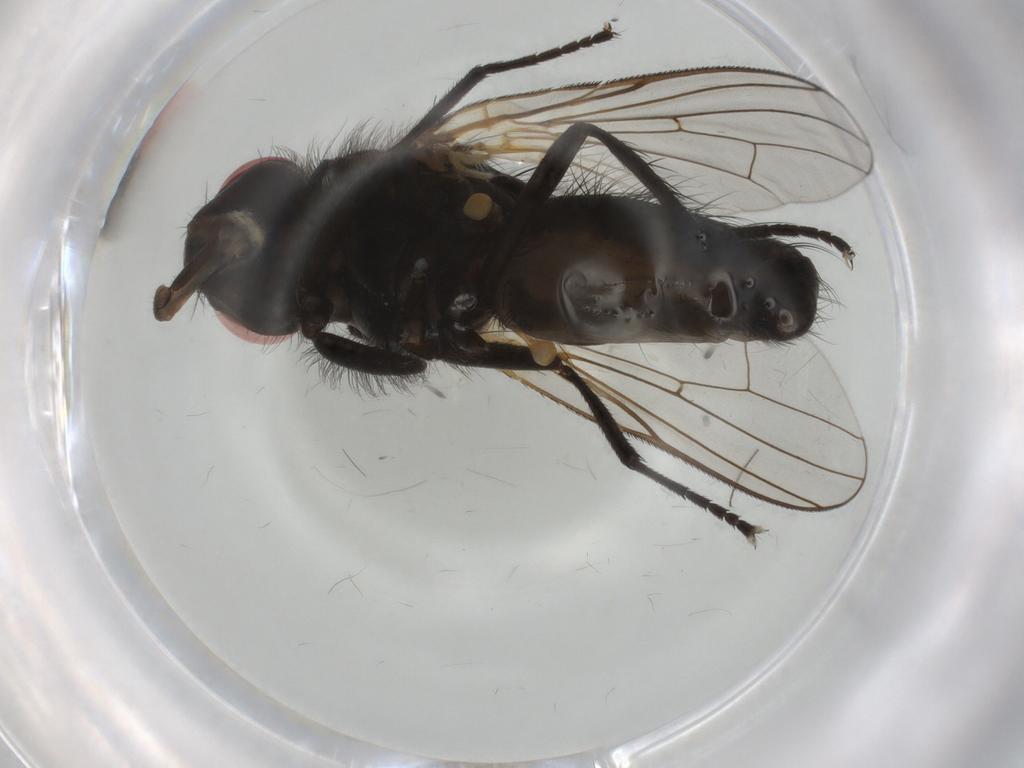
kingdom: Animalia
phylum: Arthropoda
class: Insecta
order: Diptera
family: Anthomyiidae
